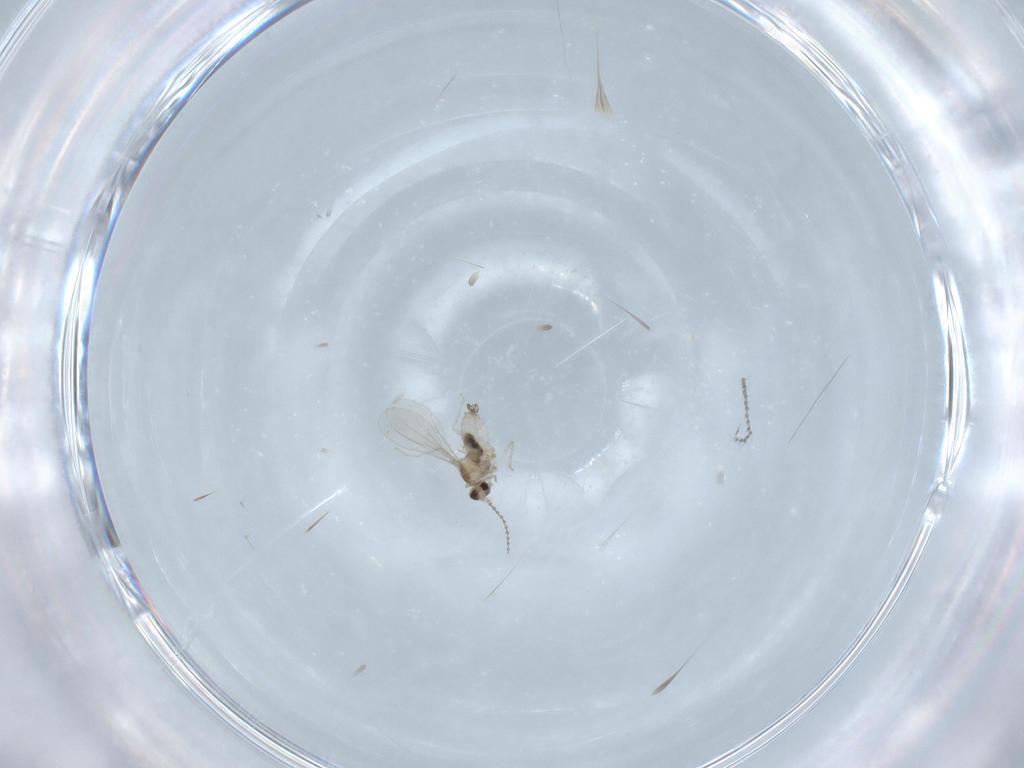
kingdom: Animalia
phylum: Arthropoda
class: Insecta
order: Diptera
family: Cecidomyiidae
